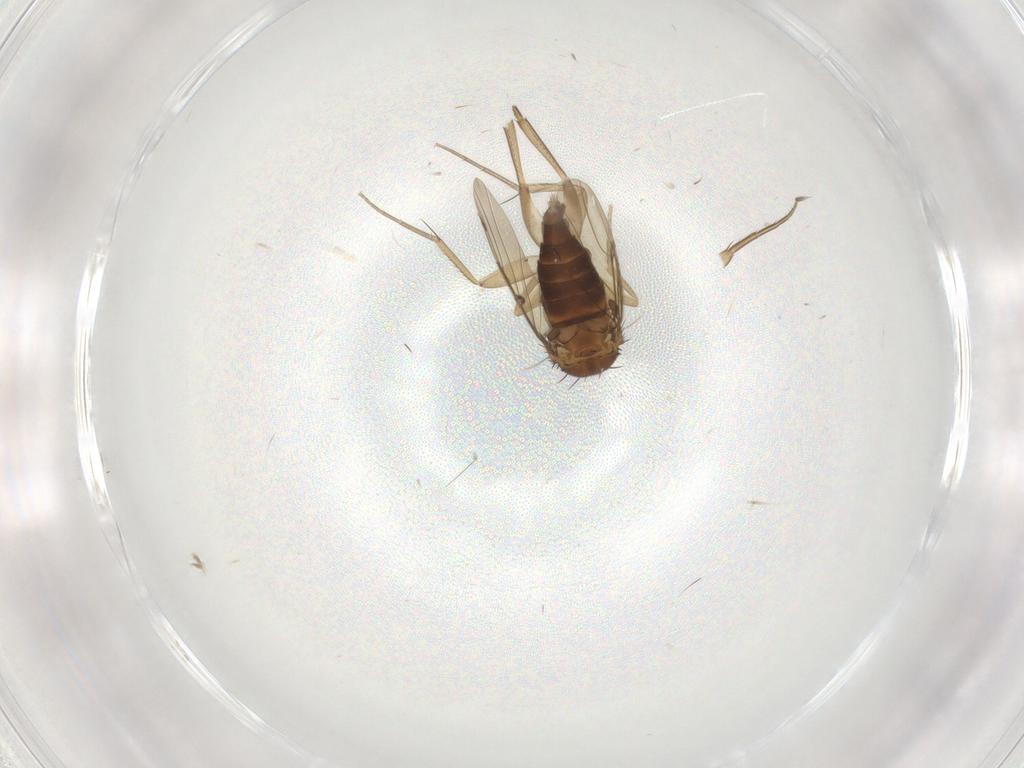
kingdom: Animalia
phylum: Arthropoda
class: Insecta
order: Diptera
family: Phoridae
